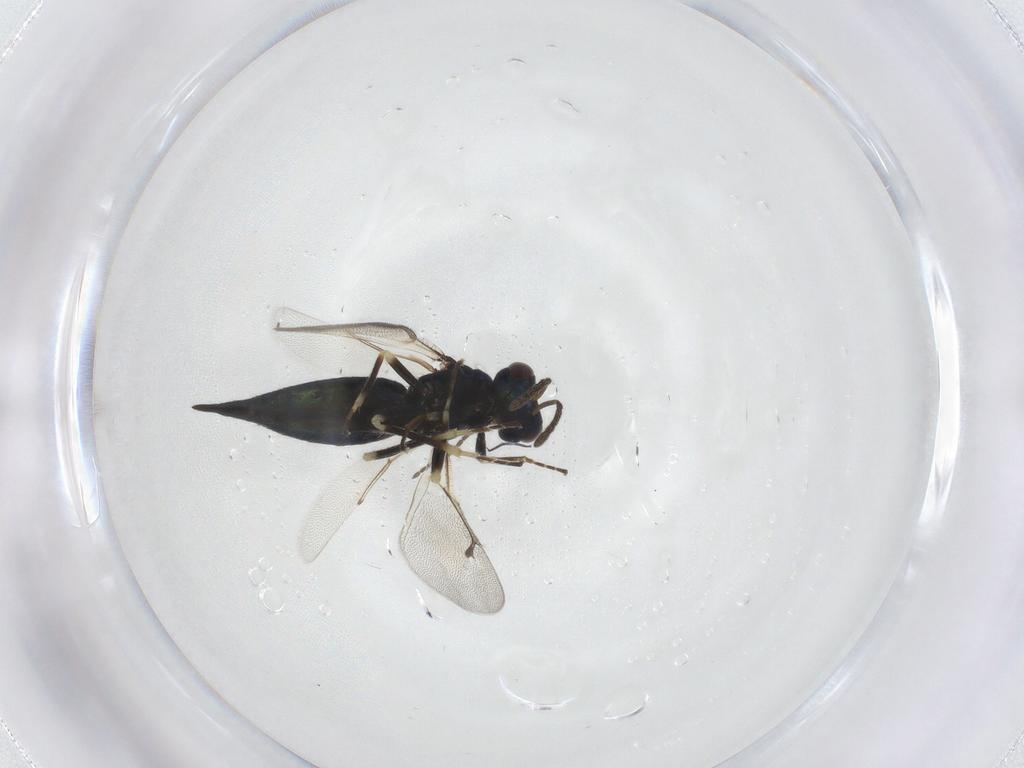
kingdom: Animalia
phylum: Arthropoda
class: Insecta
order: Hymenoptera
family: Eulophidae
